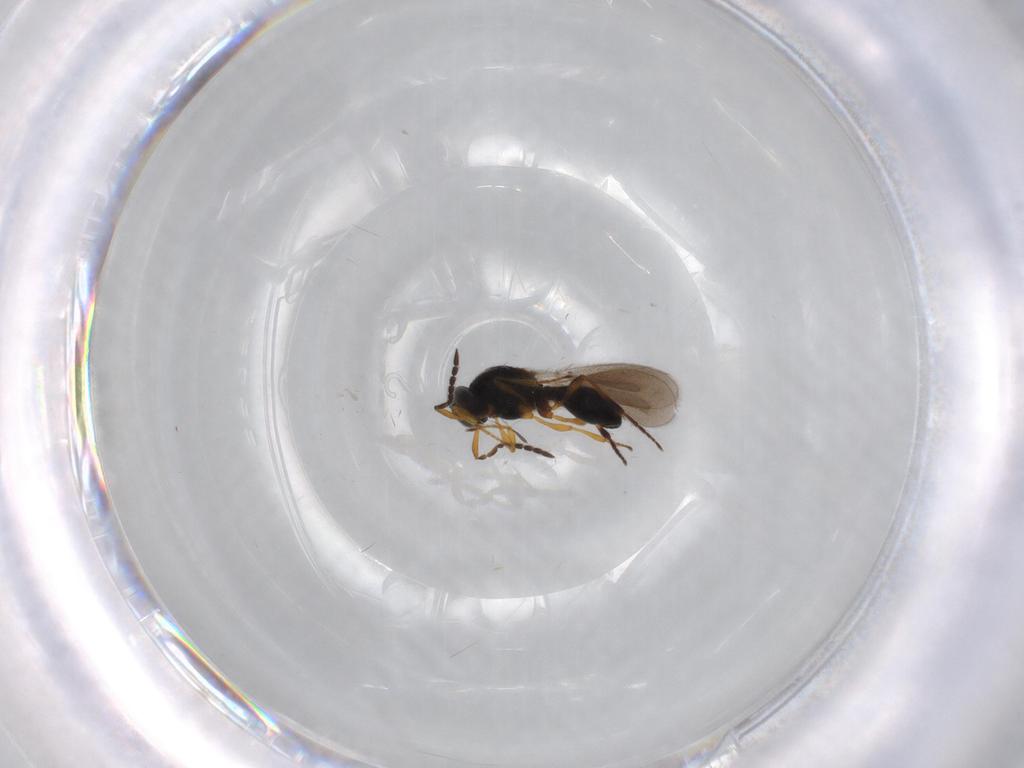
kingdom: Animalia
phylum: Arthropoda
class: Insecta
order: Hymenoptera
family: Platygastridae
